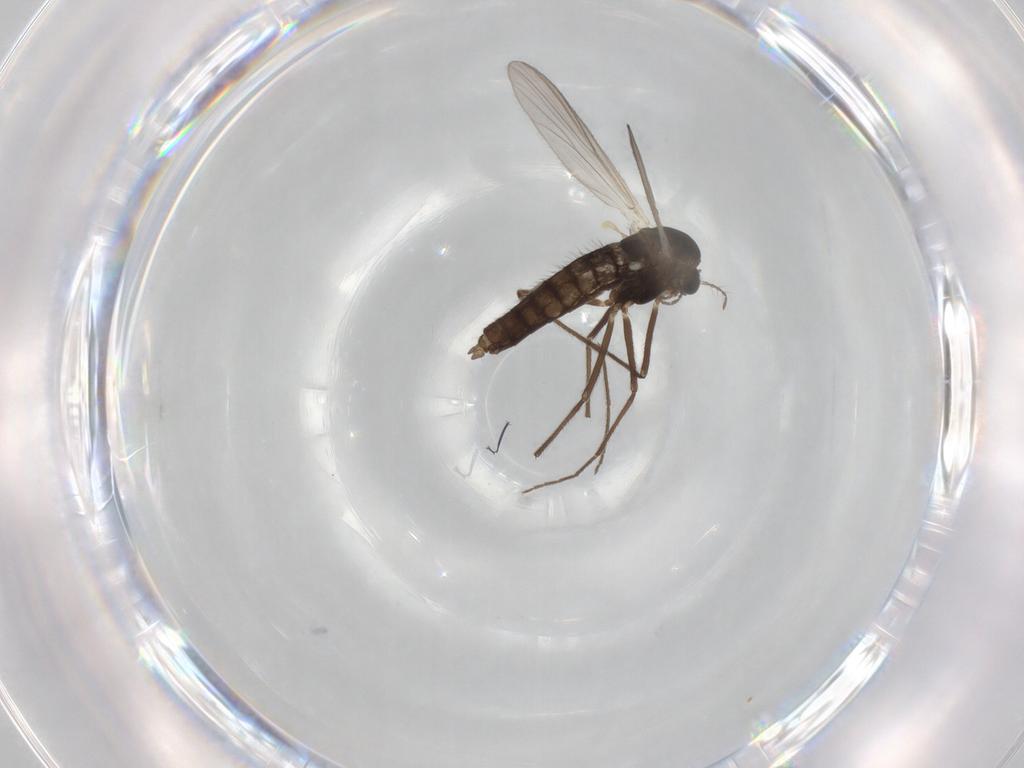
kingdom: Animalia
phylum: Arthropoda
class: Insecta
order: Diptera
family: Chironomidae
